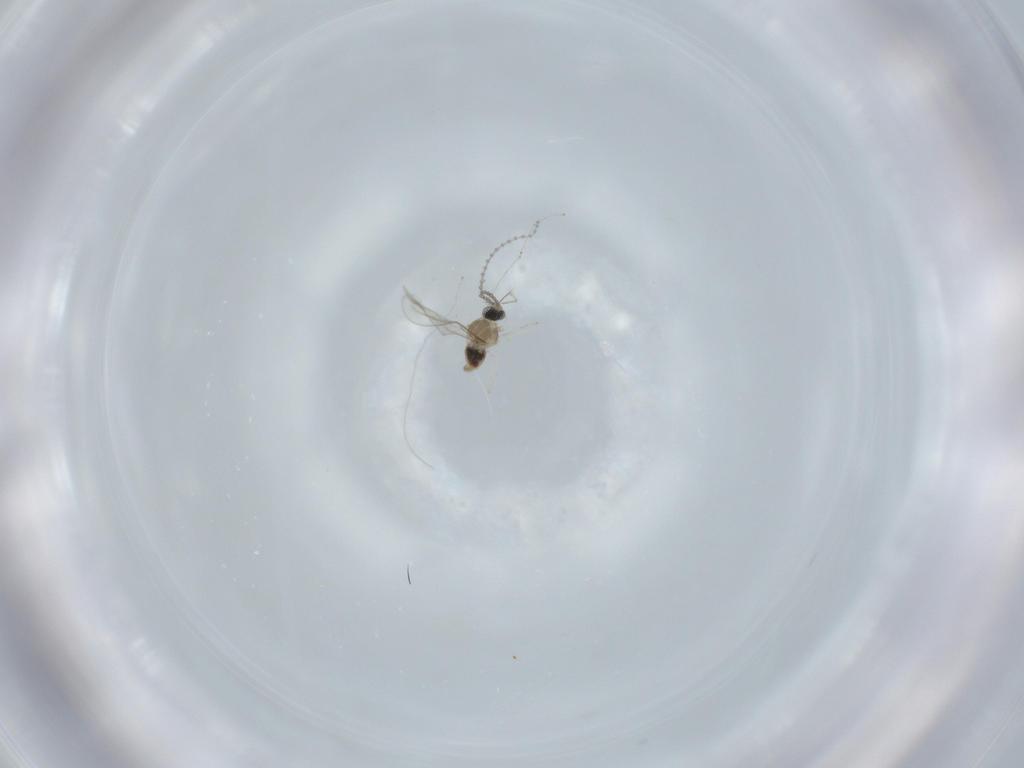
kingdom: Animalia
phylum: Arthropoda
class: Insecta
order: Diptera
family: Cecidomyiidae
